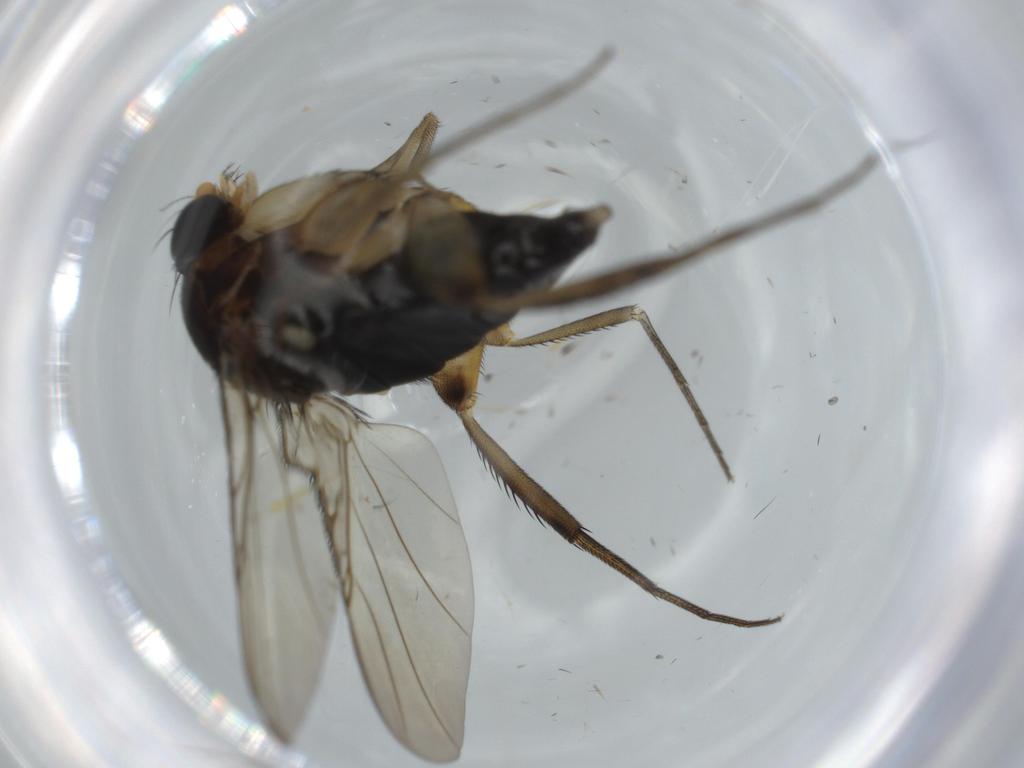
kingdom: Animalia
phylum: Arthropoda
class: Insecta
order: Diptera
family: Phoridae
